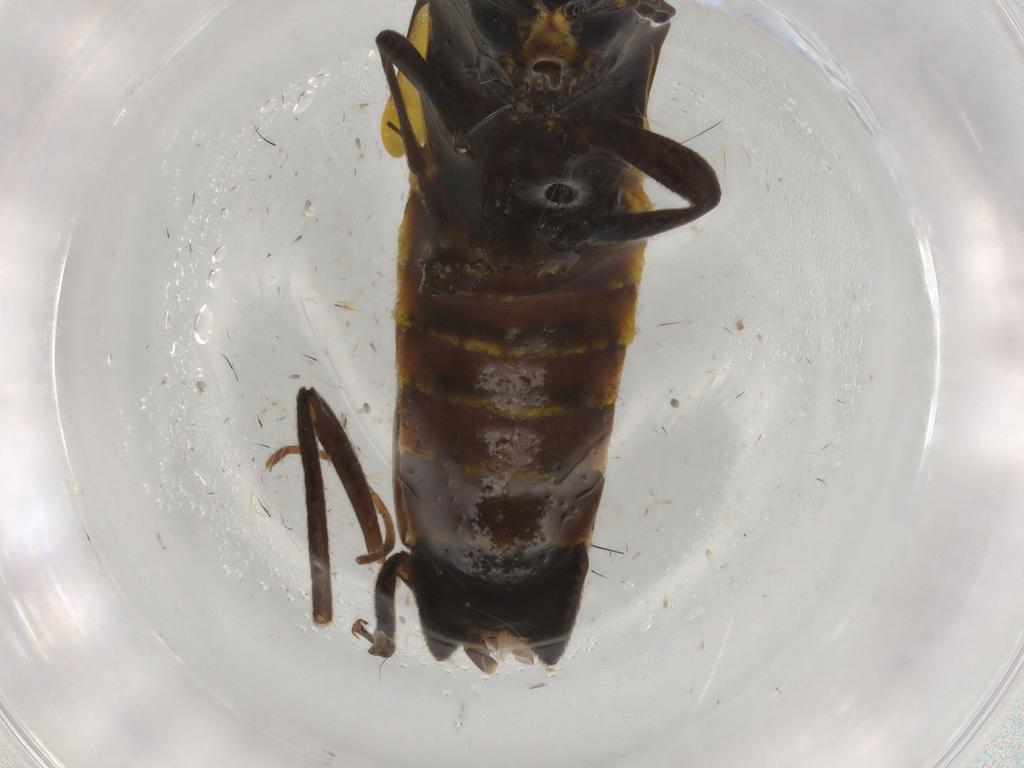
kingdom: Animalia
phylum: Arthropoda
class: Insecta
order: Coleoptera
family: Cantharidae
